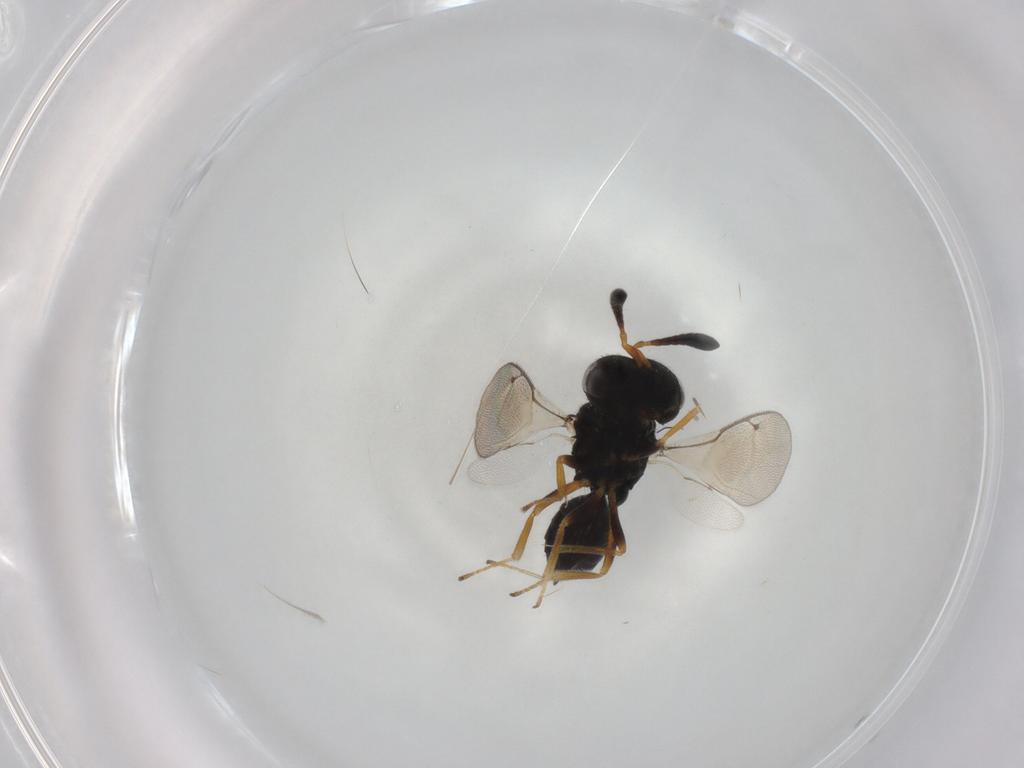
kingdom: Animalia
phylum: Arthropoda
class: Insecta
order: Hymenoptera
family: Pteromalidae
